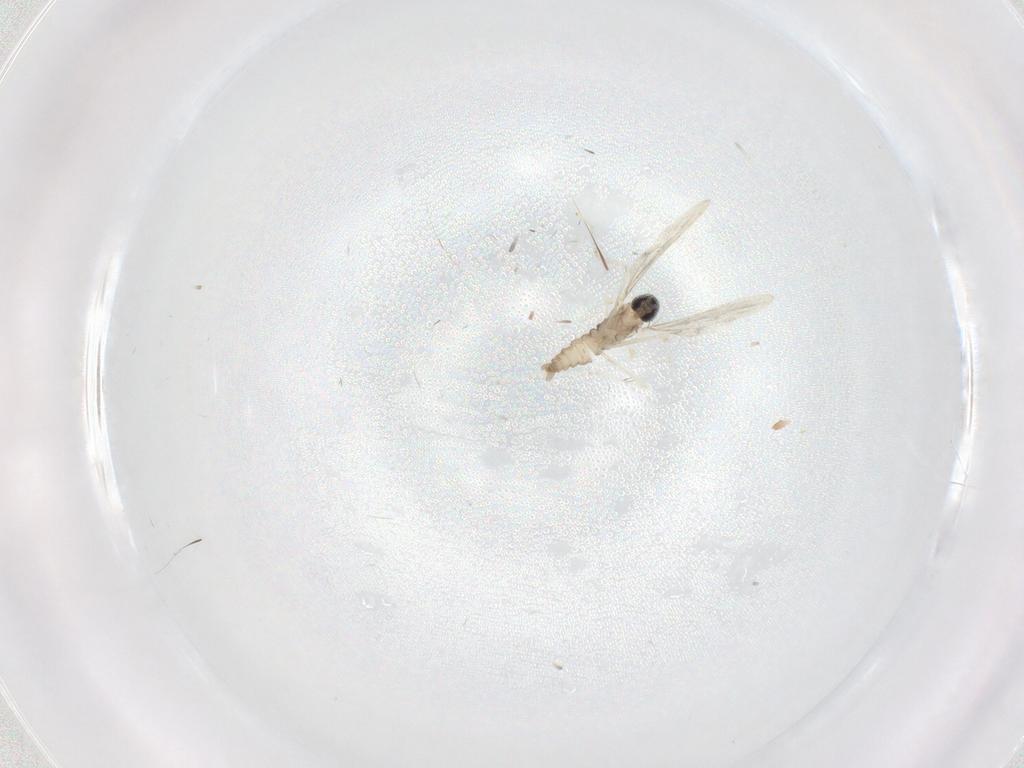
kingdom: Animalia
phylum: Arthropoda
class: Insecta
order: Diptera
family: Cecidomyiidae
